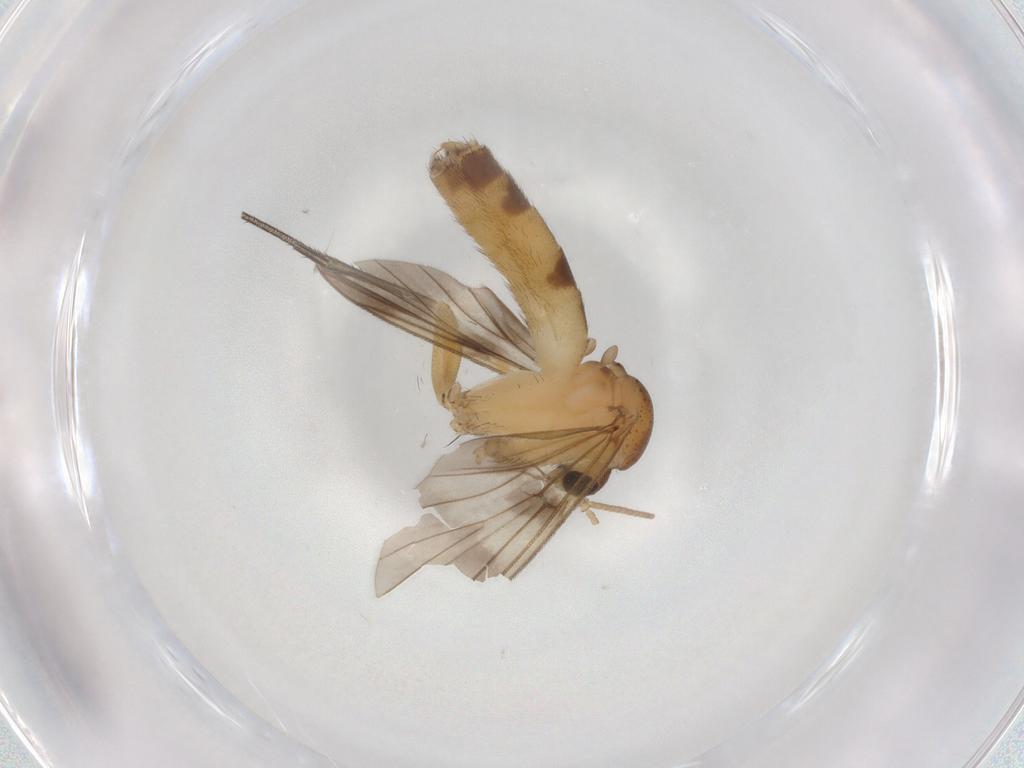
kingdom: Animalia
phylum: Arthropoda
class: Insecta
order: Diptera
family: Mycetophilidae
